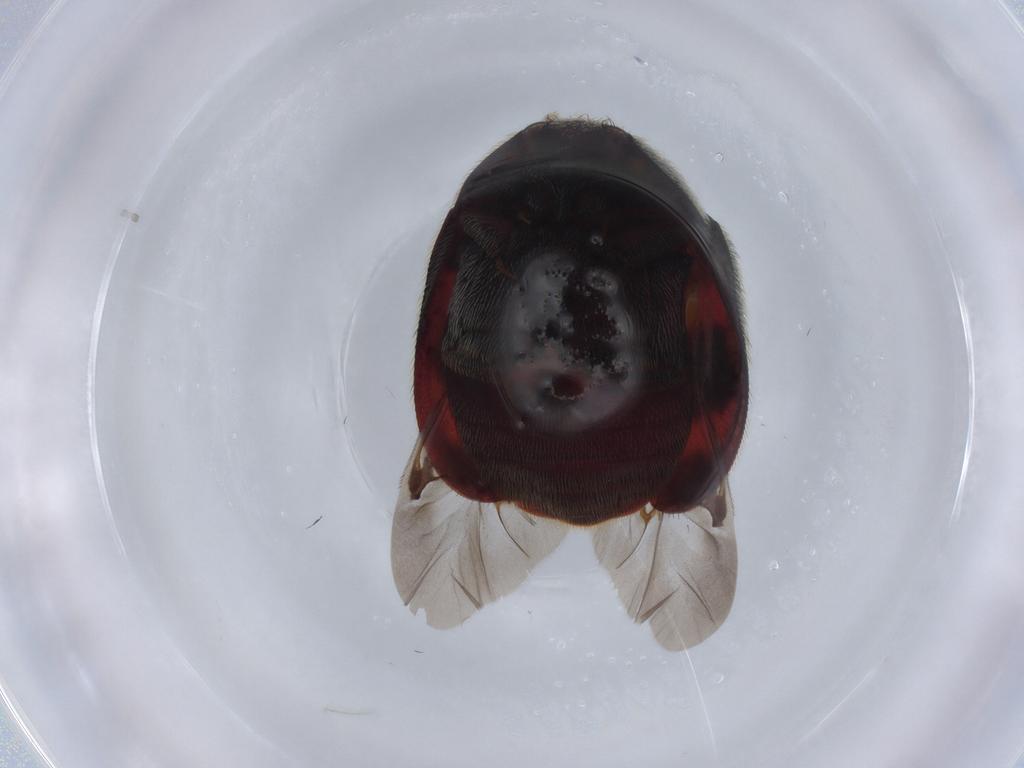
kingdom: Animalia
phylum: Arthropoda
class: Insecta
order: Coleoptera
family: Dermestidae
